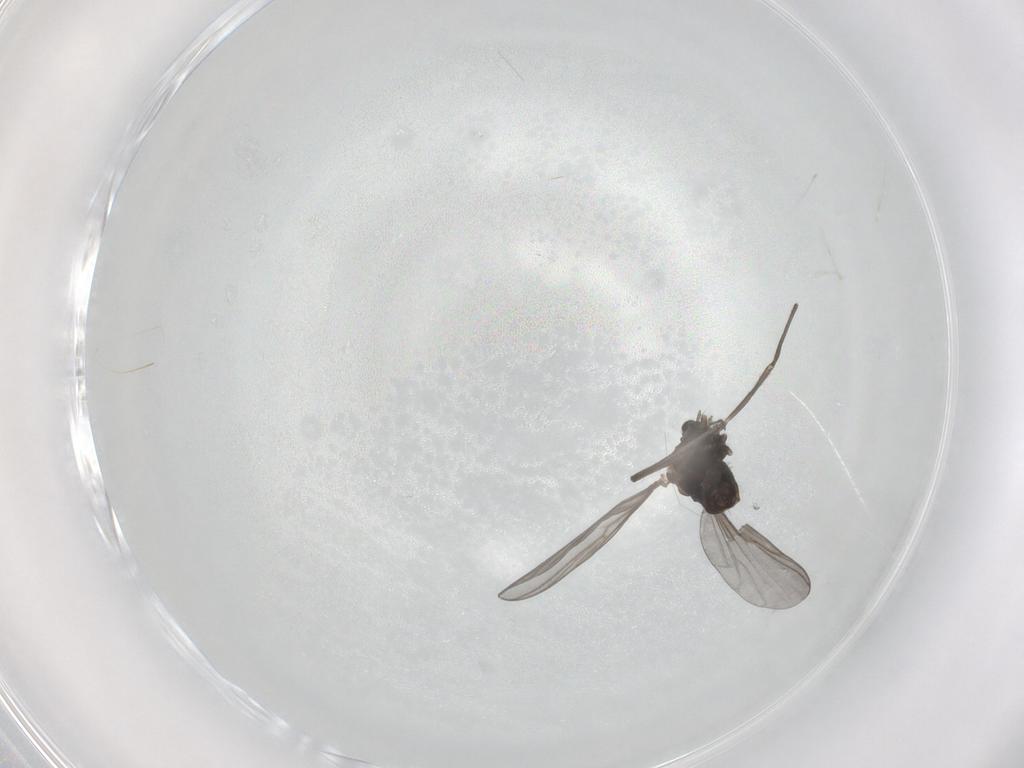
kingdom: Animalia
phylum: Arthropoda
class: Insecta
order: Diptera
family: Chironomidae
